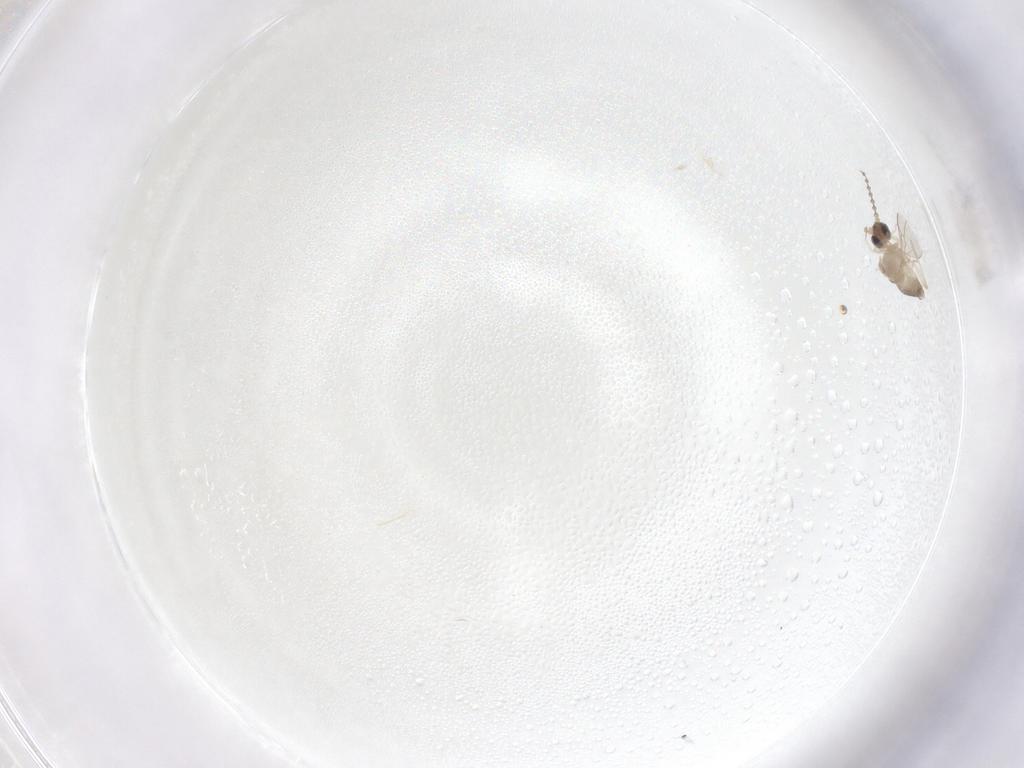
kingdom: Animalia
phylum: Arthropoda
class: Insecta
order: Diptera
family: Cecidomyiidae
